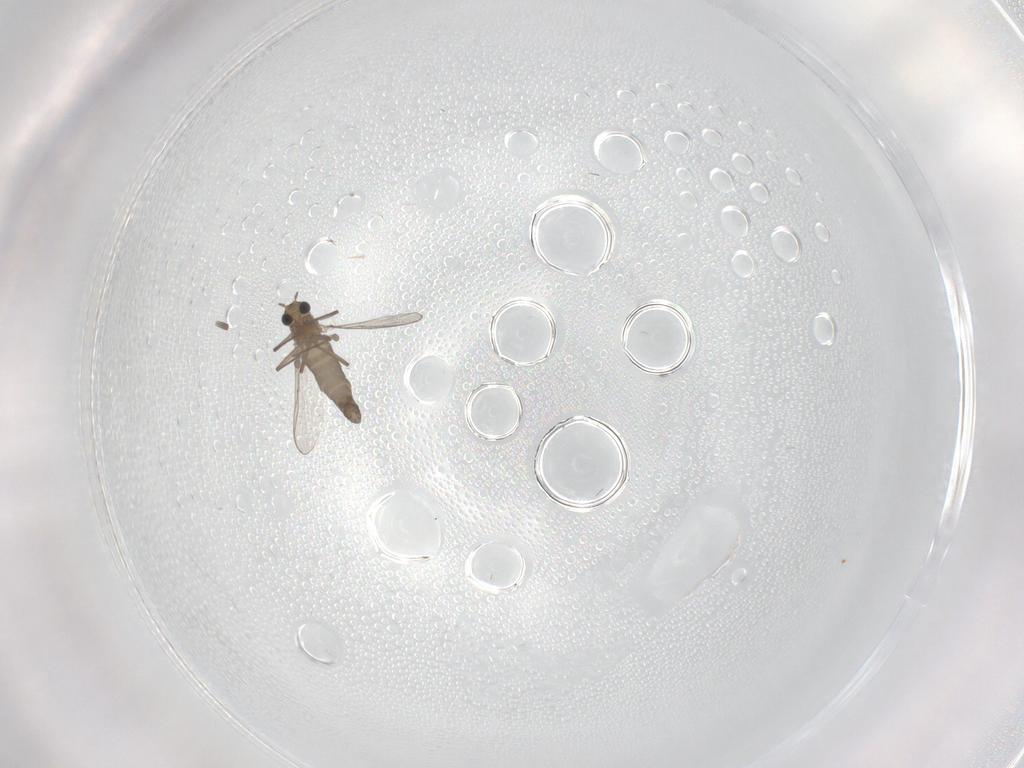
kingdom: Animalia
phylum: Arthropoda
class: Insecta
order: Diptera
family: Chironomidae
